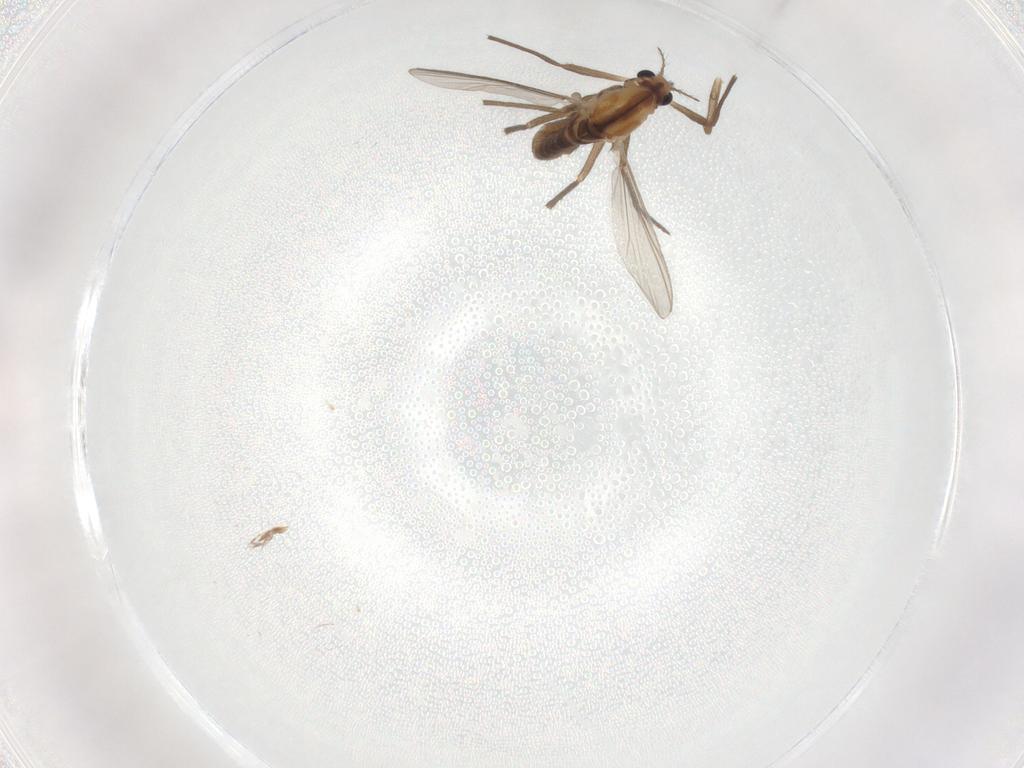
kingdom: Animalia
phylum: Arthropoda
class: Insecta
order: Diptera
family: Chironomidae
